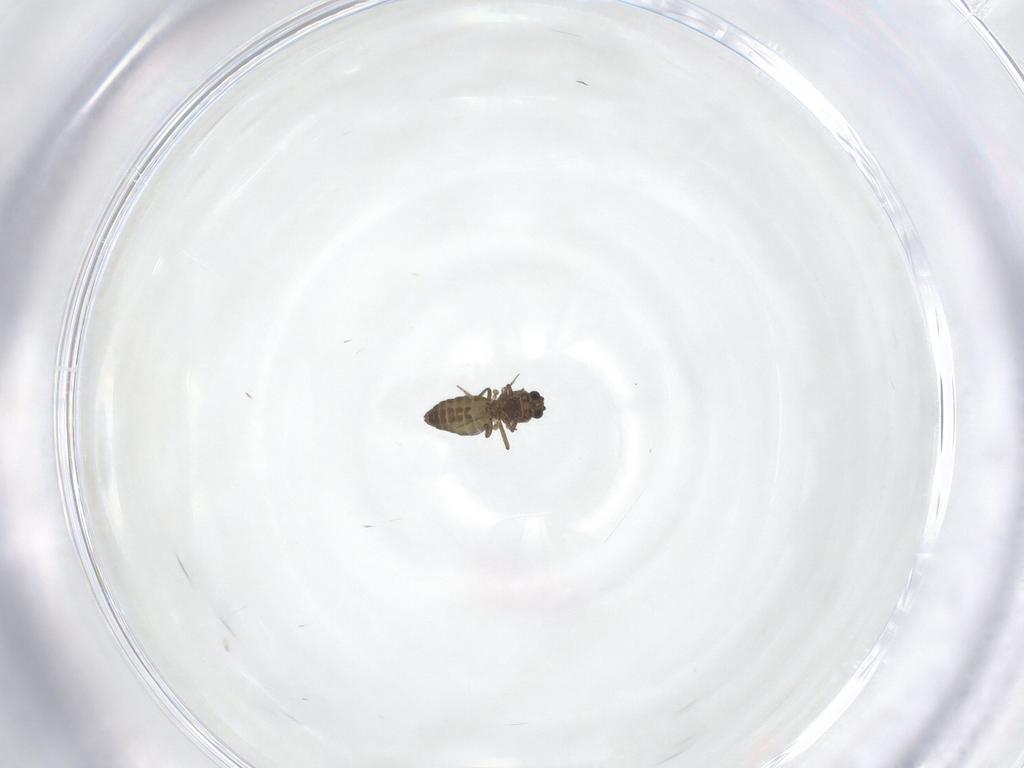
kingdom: Animalia
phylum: Arthropoda
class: Insecta
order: Diptera
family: Ceratopogonidae
